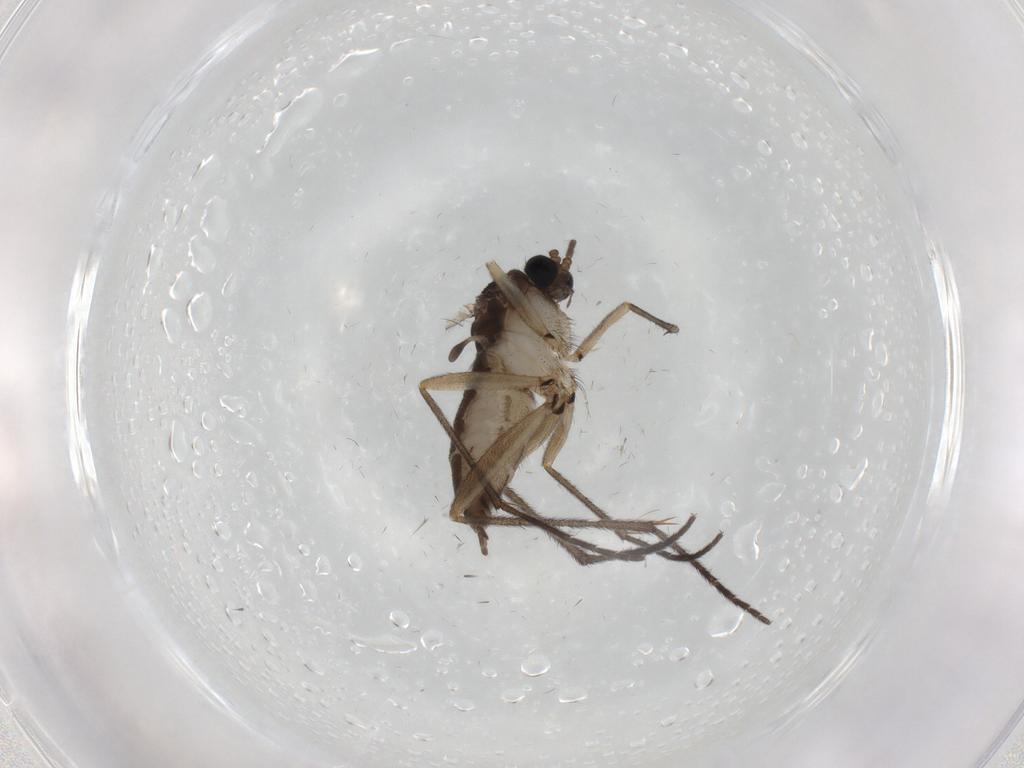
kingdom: Animalia
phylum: Arthropoda
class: Insecta
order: Diptera
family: Sciaridae
